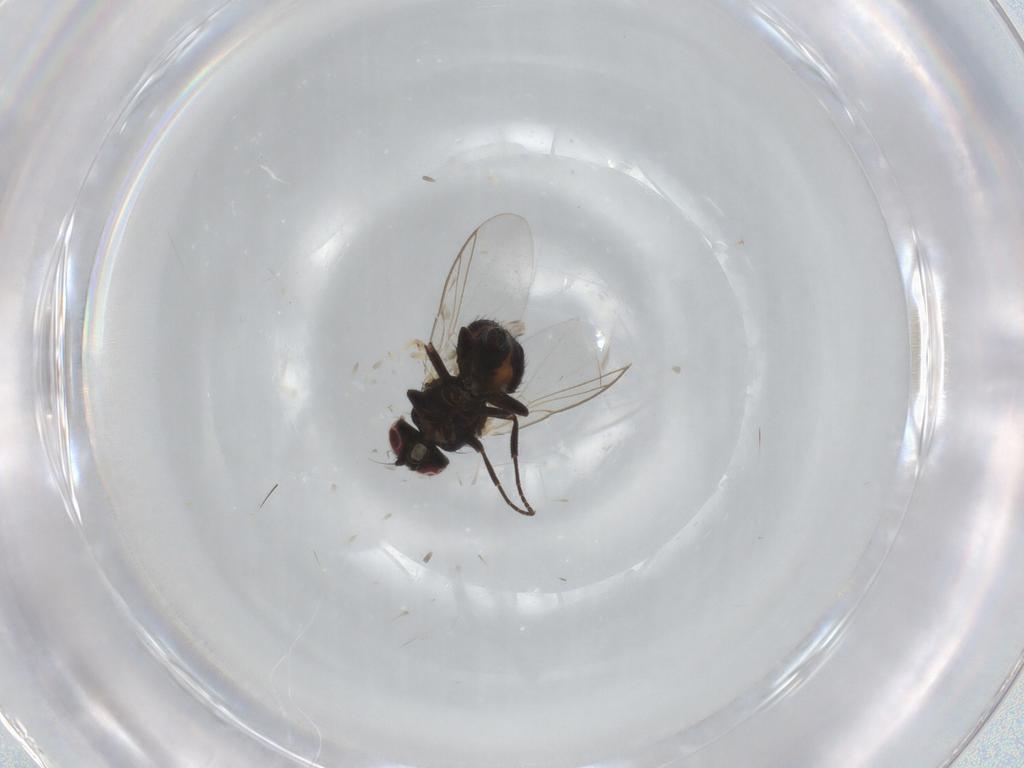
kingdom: Animalia
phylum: Arthropoda
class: Insecta
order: Diptera
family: Agromyzidae
